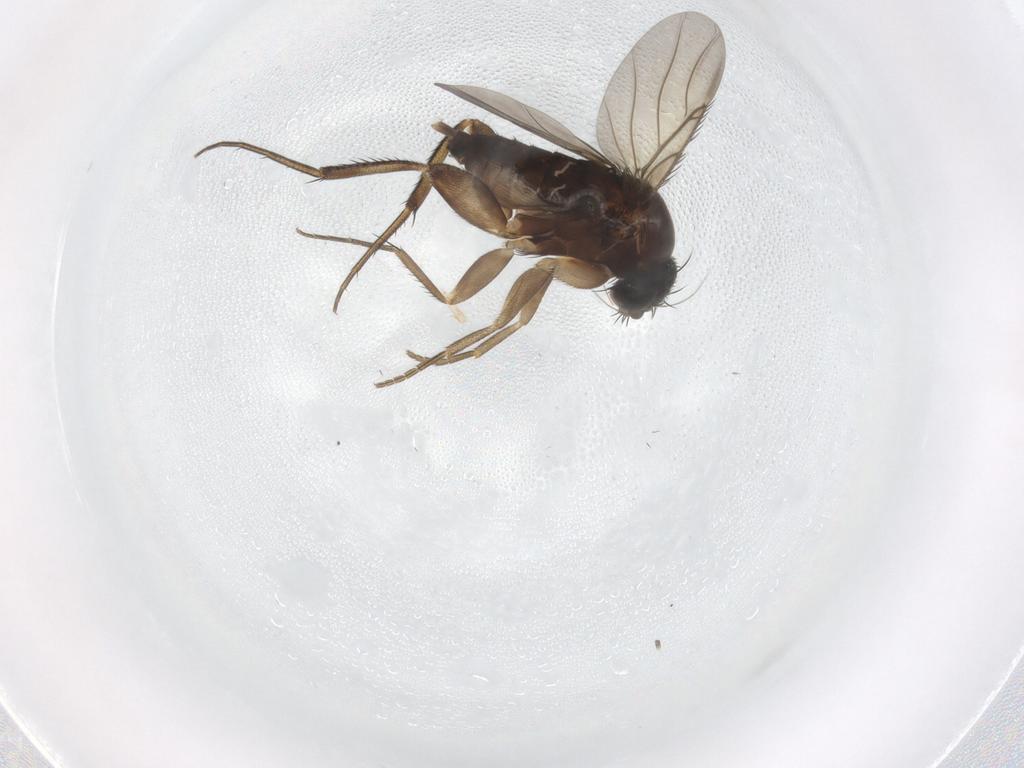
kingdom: Animalia
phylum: Arthropoda
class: Insecta
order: Diptera
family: Phoridae
